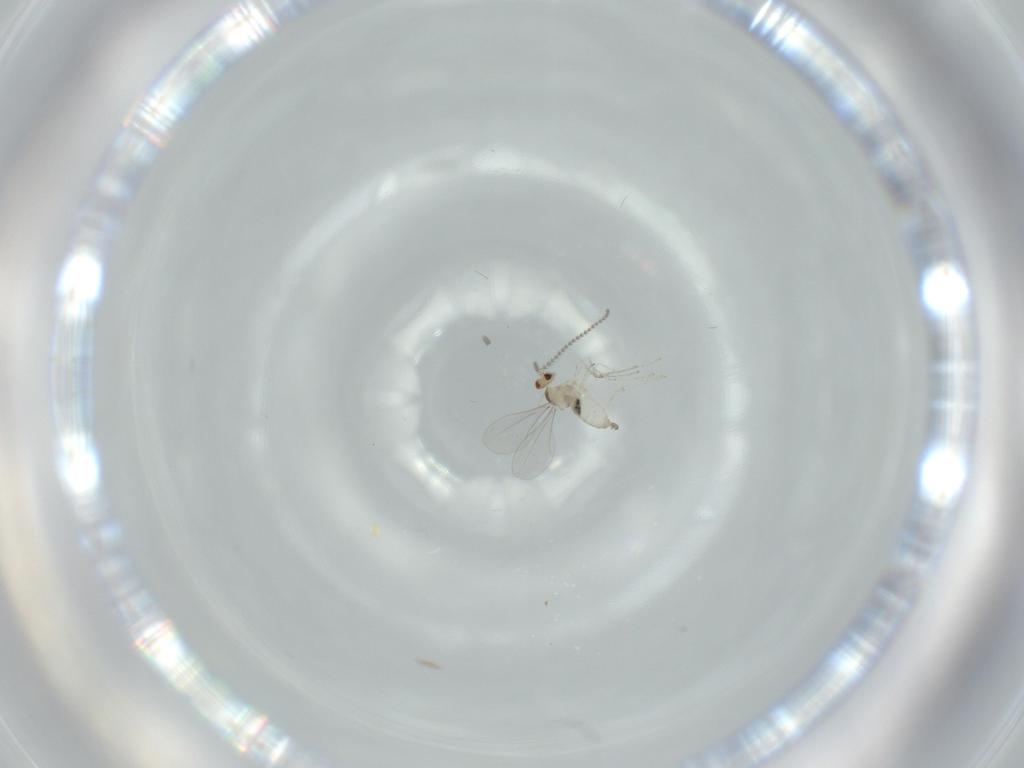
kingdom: Animalia
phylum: Arthropoda
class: Insecta
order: Diptera
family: Cecidomyiidae
